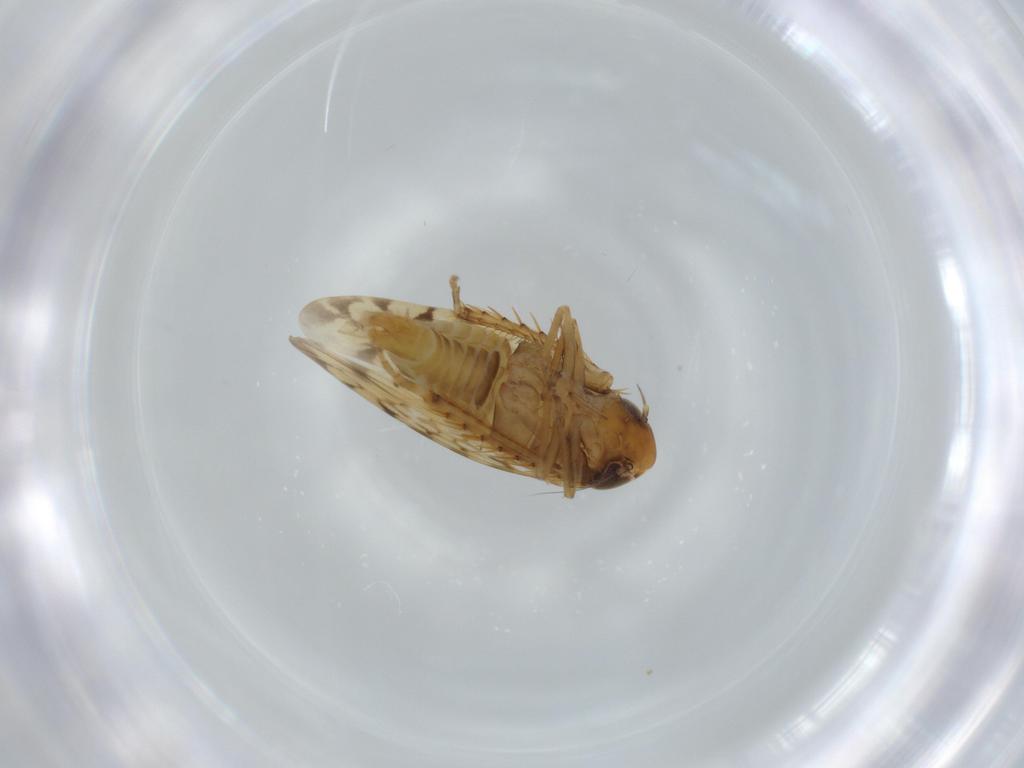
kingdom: Animalia
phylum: Arthropoda
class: Insecta
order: Hemiptera
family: Cicadellidae
